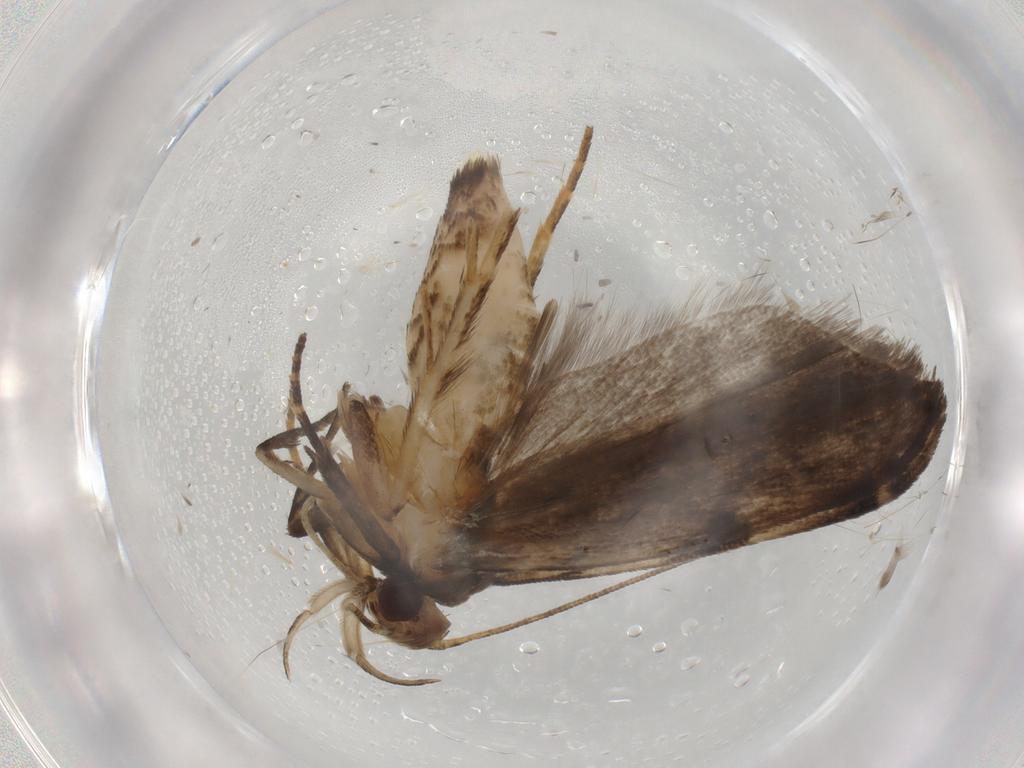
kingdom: Animalia
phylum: Arthropoda
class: Insecta
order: Lepidoptera
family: Gelechiidae
